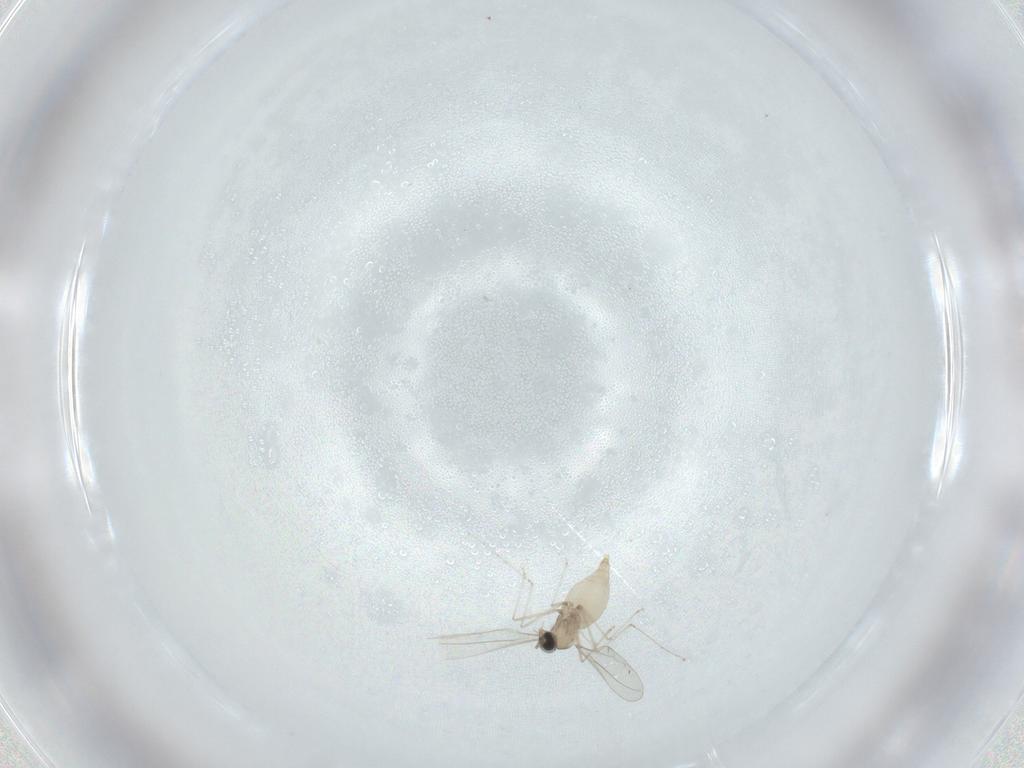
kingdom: Animalia
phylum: Arthropoda
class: Insecta
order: Diptera
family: Cecidomyiidae
